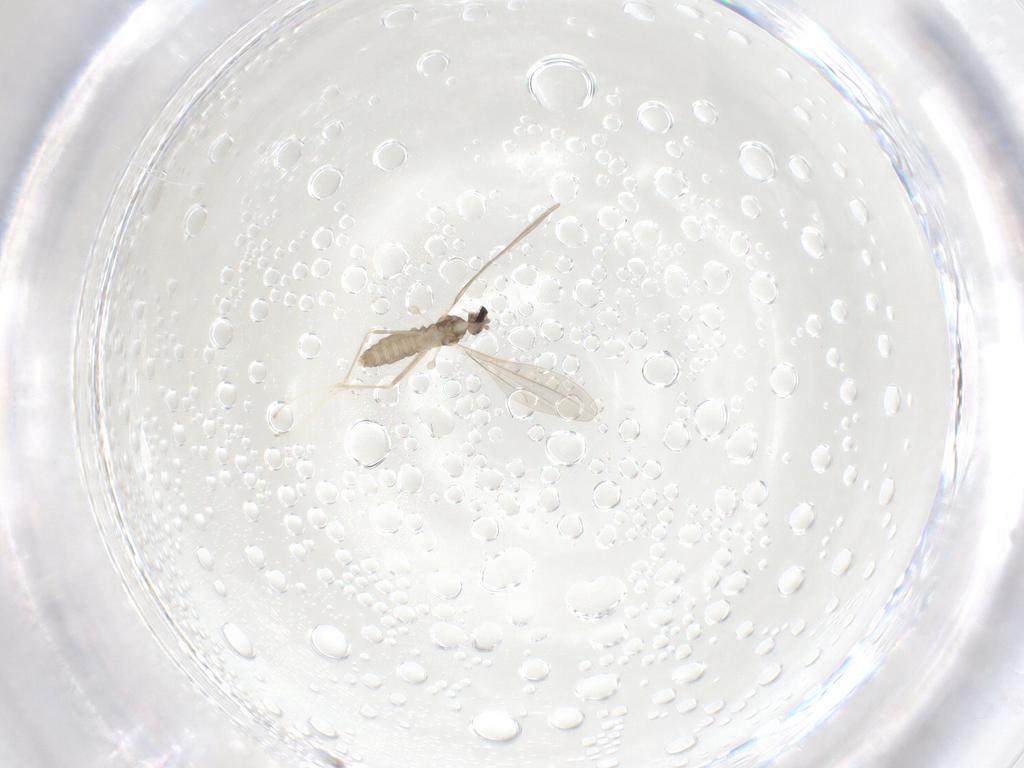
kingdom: Animalia
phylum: Arthropoda
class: Insecta
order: Diptera
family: Cecidomyiidae
